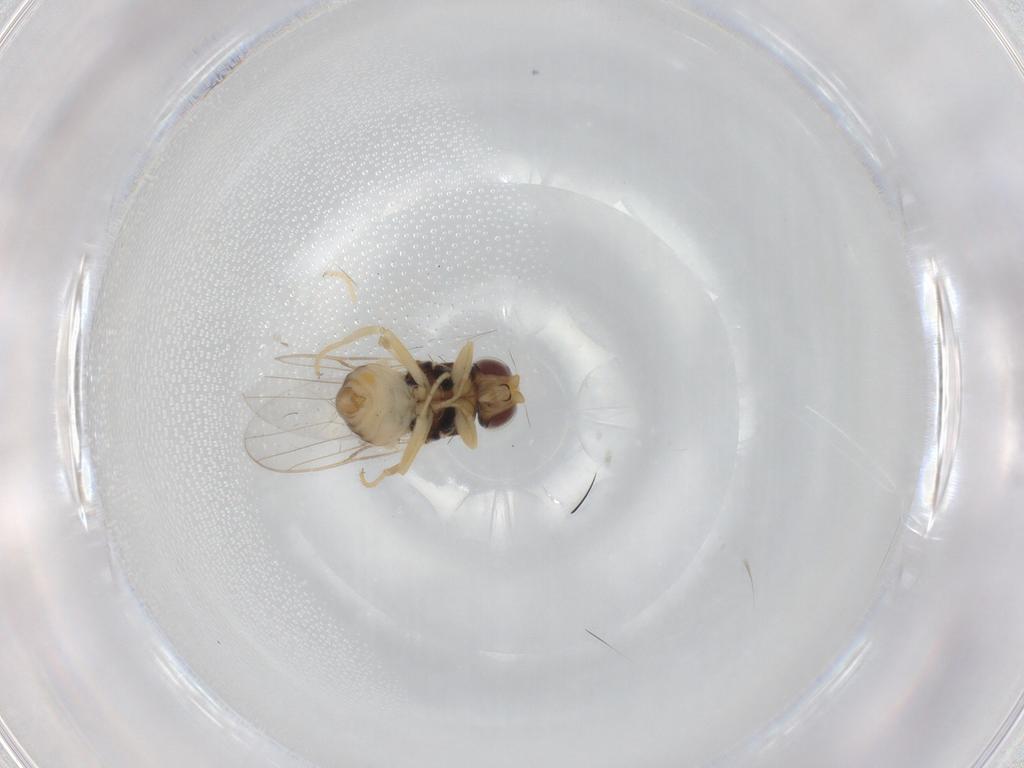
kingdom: Animalia
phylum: Arthropoda
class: Insecta
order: Diptera
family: Chloropidae
